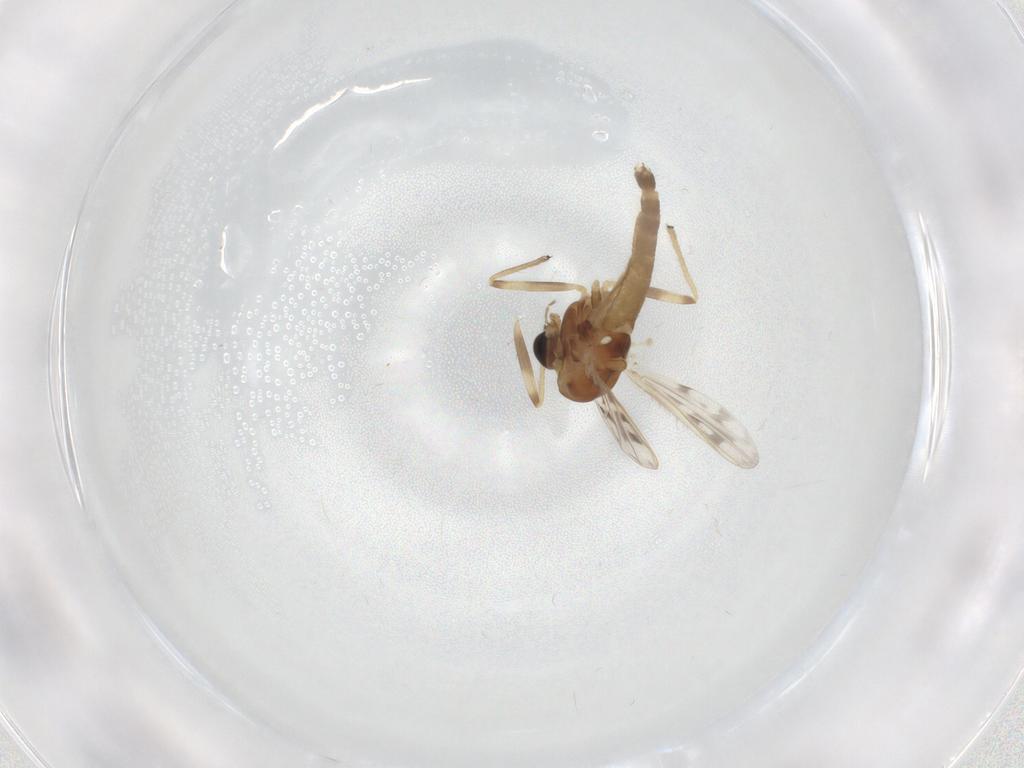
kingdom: Animalia
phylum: Arthropoda
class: Insecta
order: Diptera
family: Chironomidae
